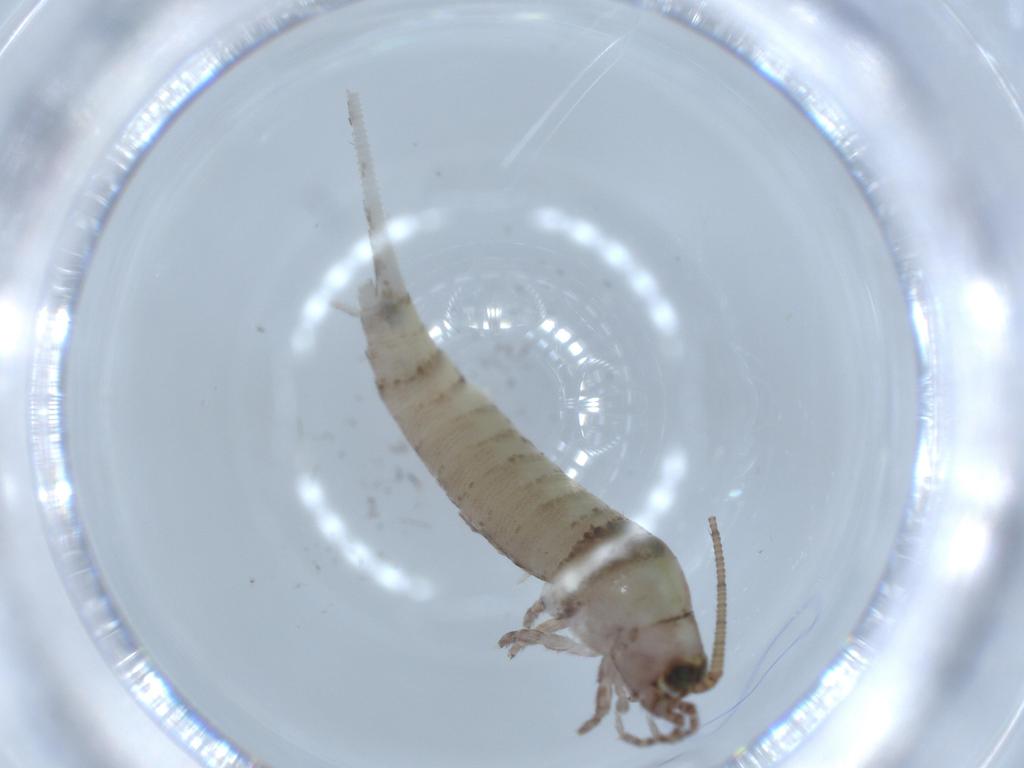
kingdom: Animalia
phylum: Arthropoda
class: Insecta
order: Archaeognatha
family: Machilidae
